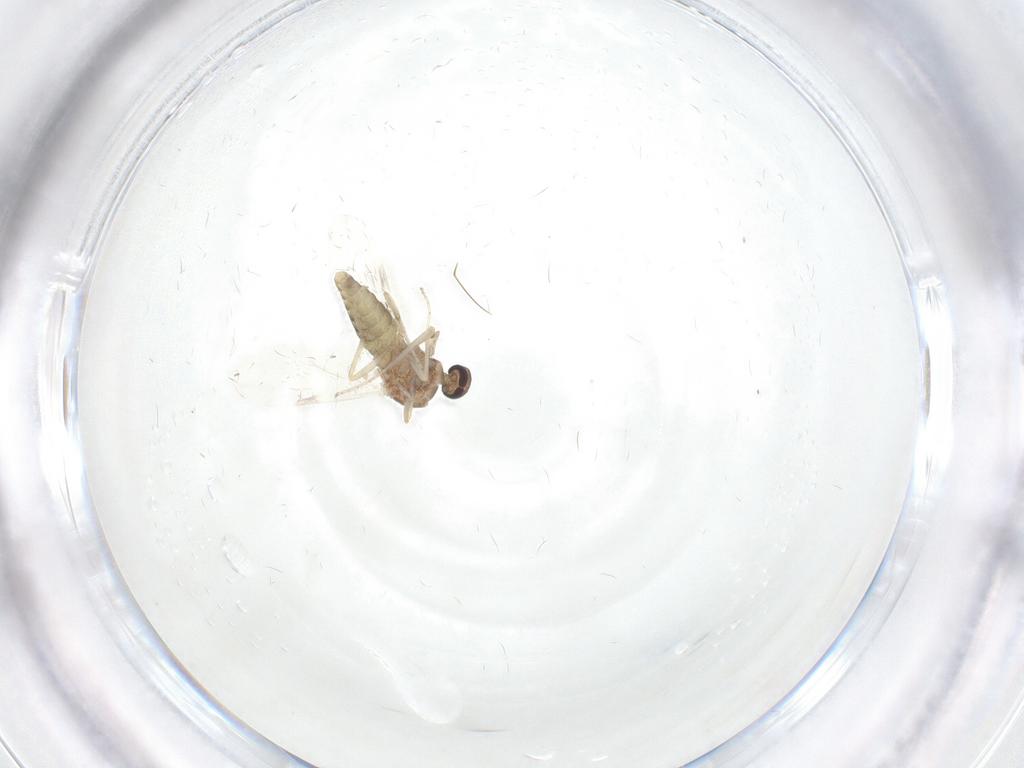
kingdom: Animalia
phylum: Arthropoda
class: Insecta
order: Diptera
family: Ceratopogonidae
